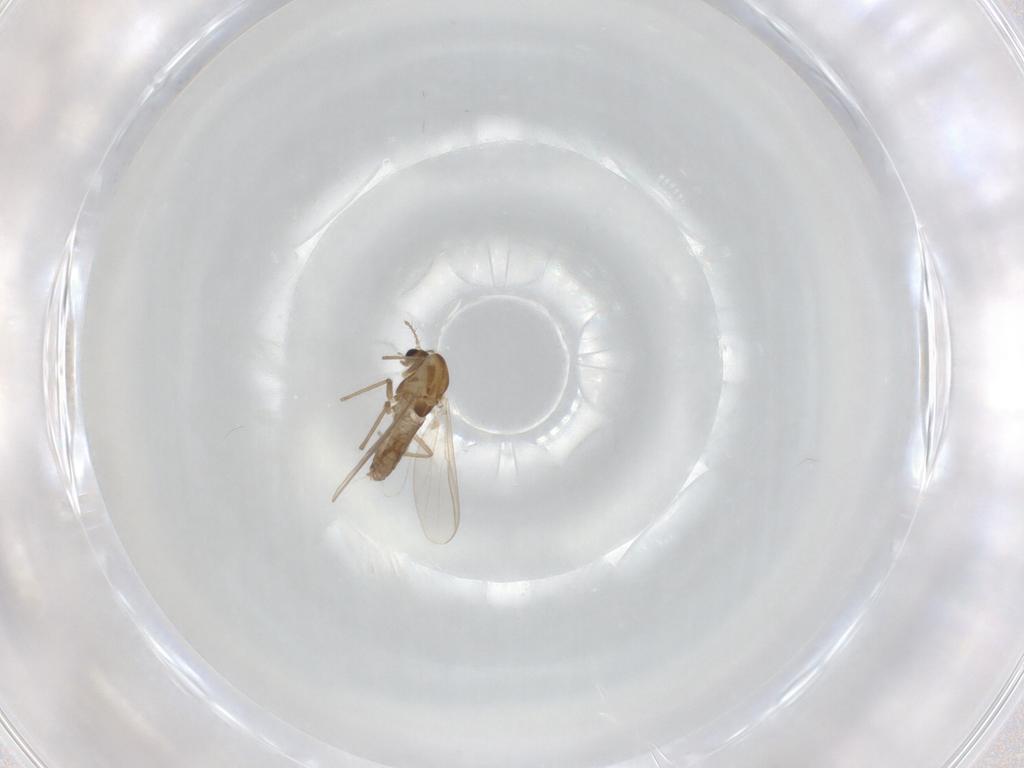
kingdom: Animalia
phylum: Arthropoda
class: Insecta
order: Diptera
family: Chironomidae
